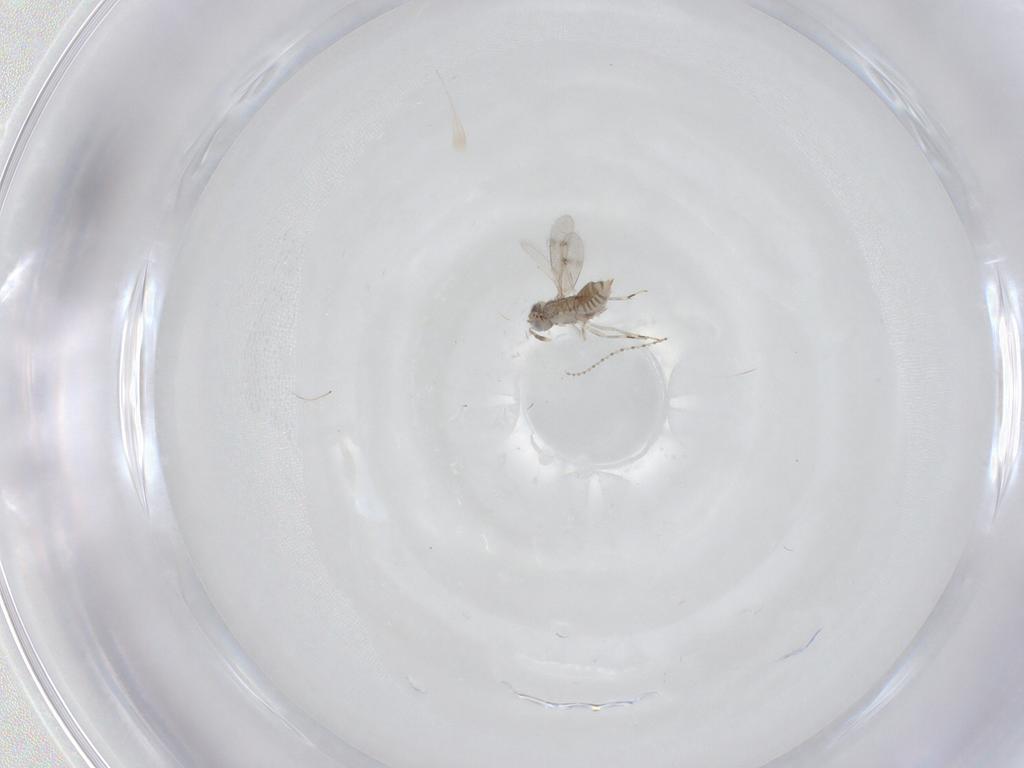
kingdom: Animalia
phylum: Arthropoda
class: Insecta
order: Hymenoptera
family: Aphelinidae
